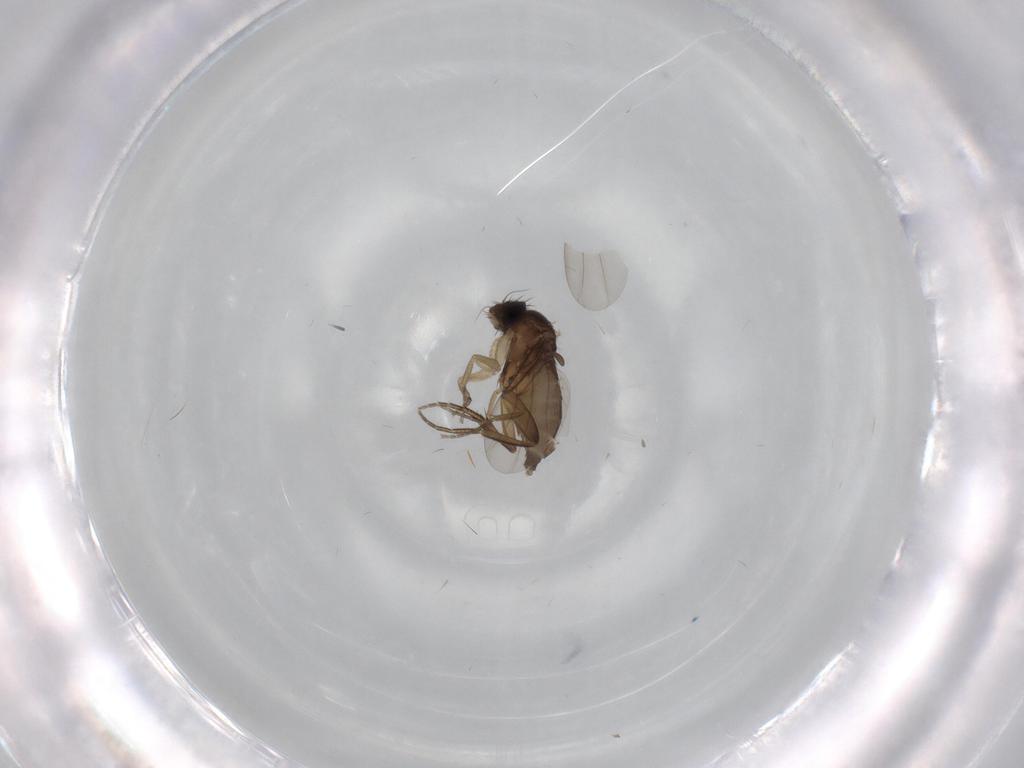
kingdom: Animalia
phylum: Arthropoda
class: Insecta
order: Diptera
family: Phoridae
